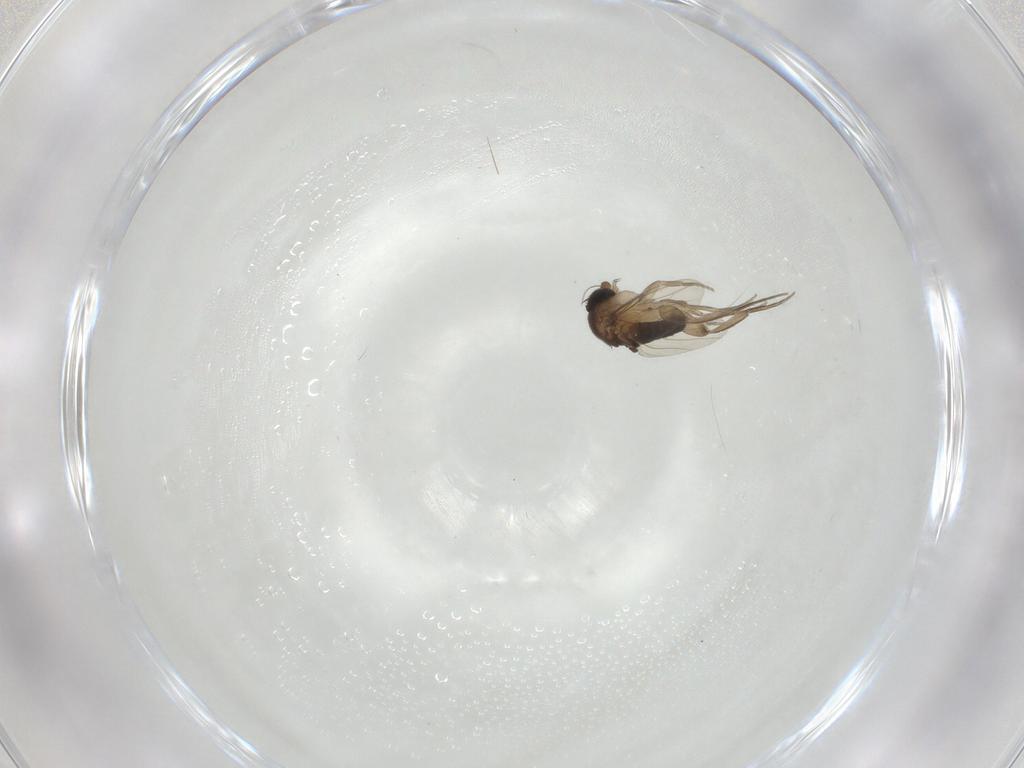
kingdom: Animalia
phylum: Arthropoda
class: Insecta
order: Diptera
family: Phoridae
